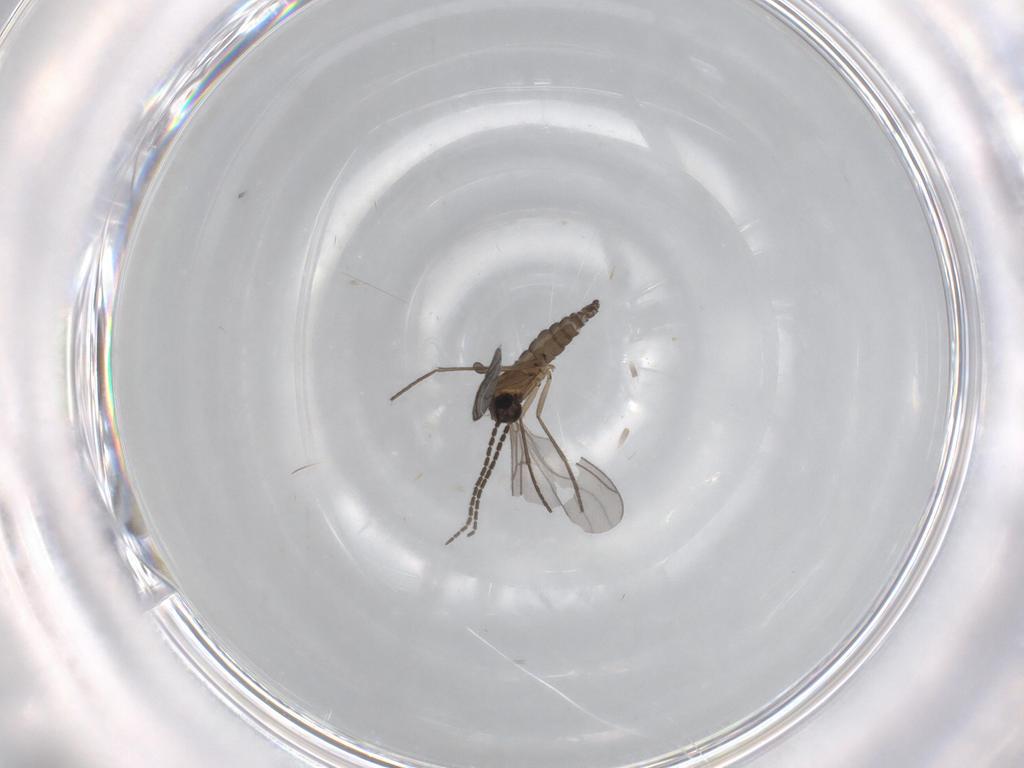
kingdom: Animalia
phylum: Arthropoda
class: Insecta
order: Diptera
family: Sciaridae
